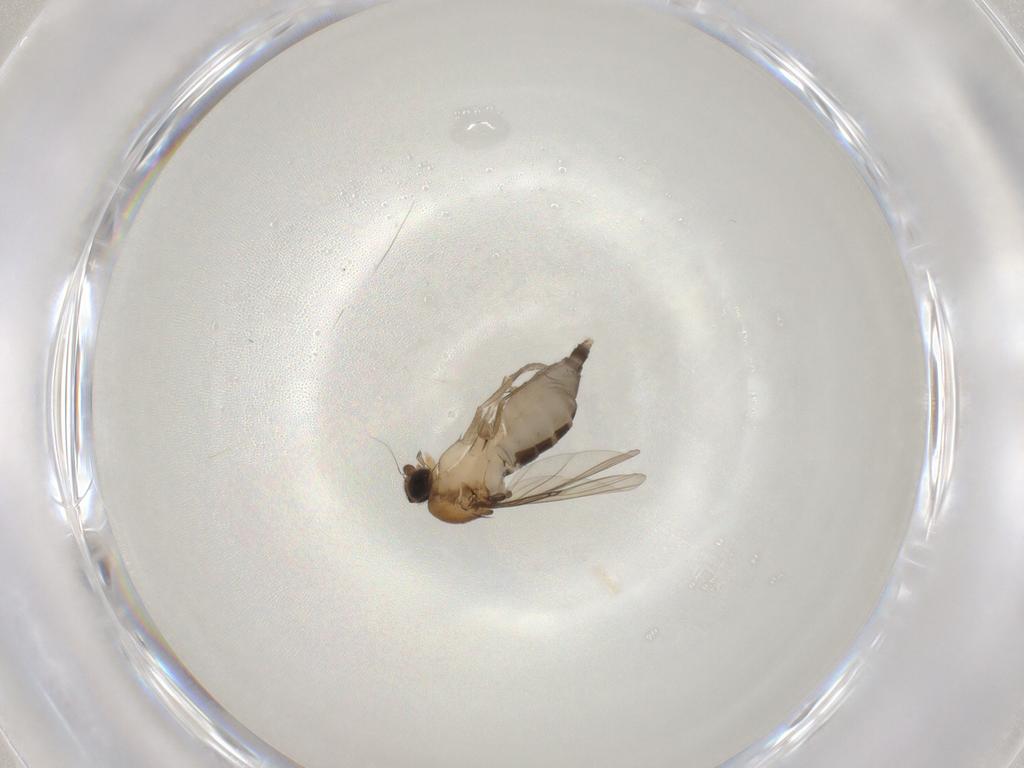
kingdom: Animalia
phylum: Arthropoda
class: Insecta
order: Diptera
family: Phoridae
